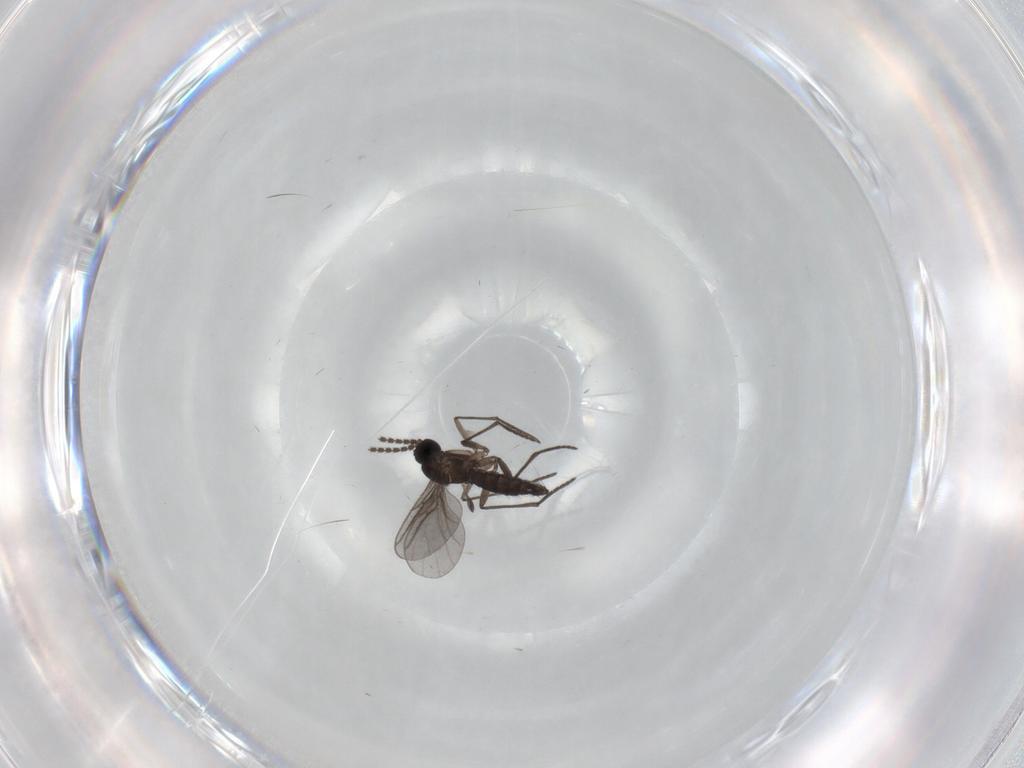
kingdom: Animalia
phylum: Arthropoda
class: Insecta
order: Diptera
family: Sciaridae
